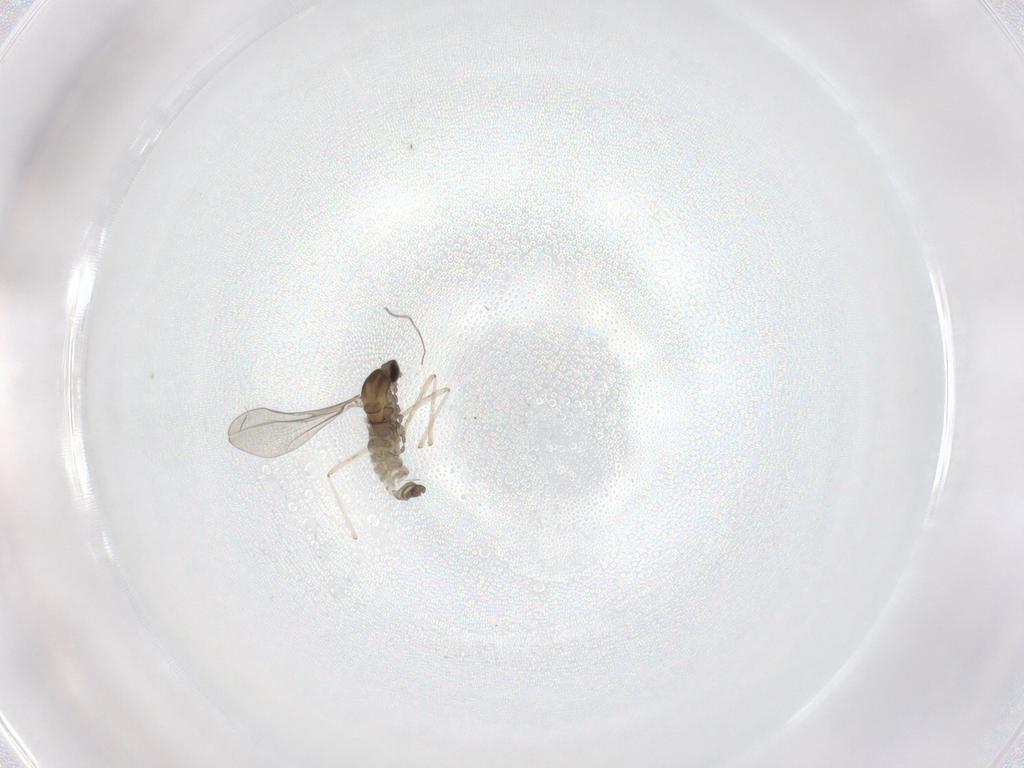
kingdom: Animalia
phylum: Arthropoda
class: Insecta
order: Diptera
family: Cecidomyiidae
